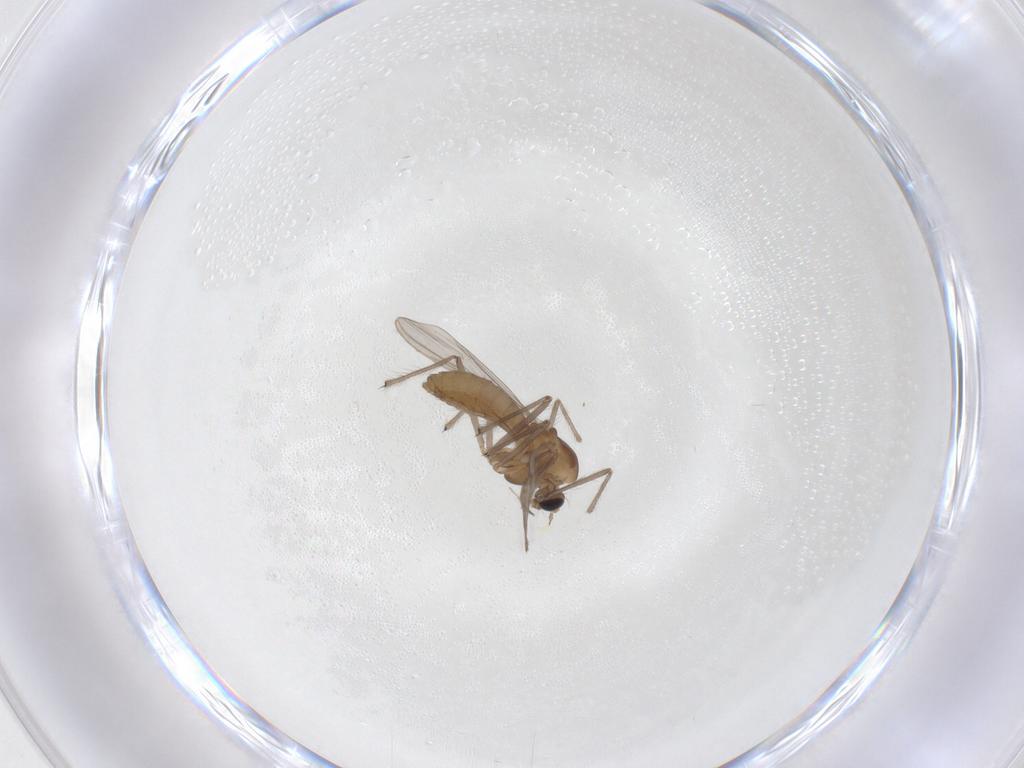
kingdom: Animalia
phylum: Arthropoda
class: Insecta
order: Diptera
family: Chironomidae
